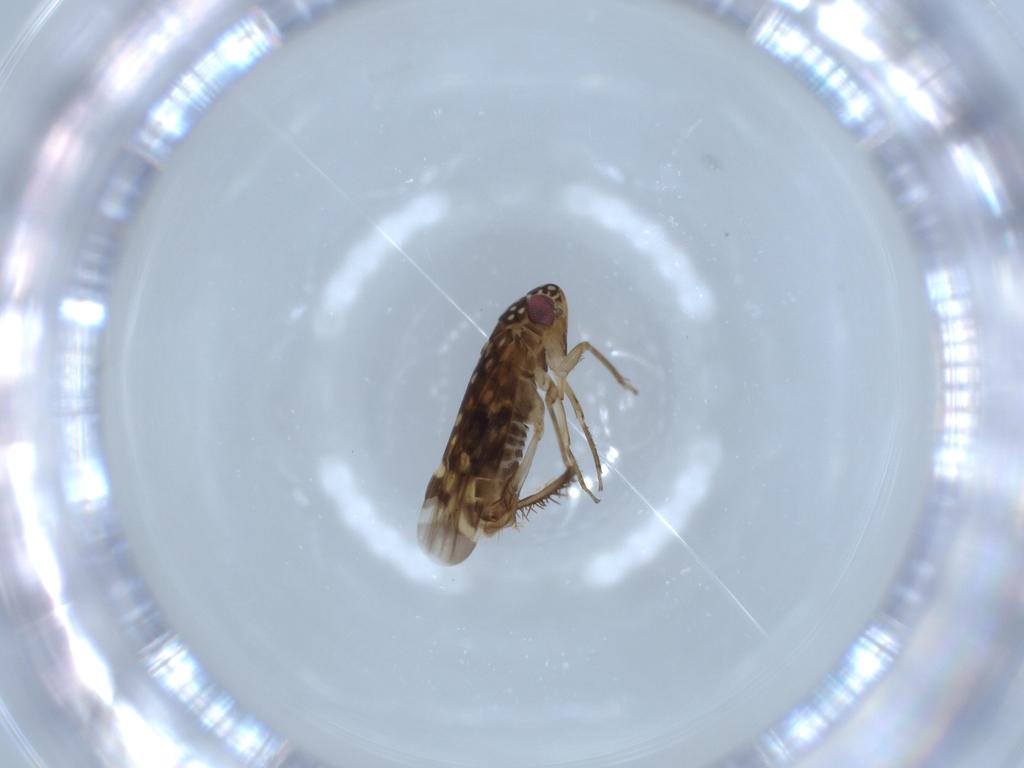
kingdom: Animalia
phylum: Arthropoda
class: Insecta
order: Hemiptera
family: Cicadellidae
